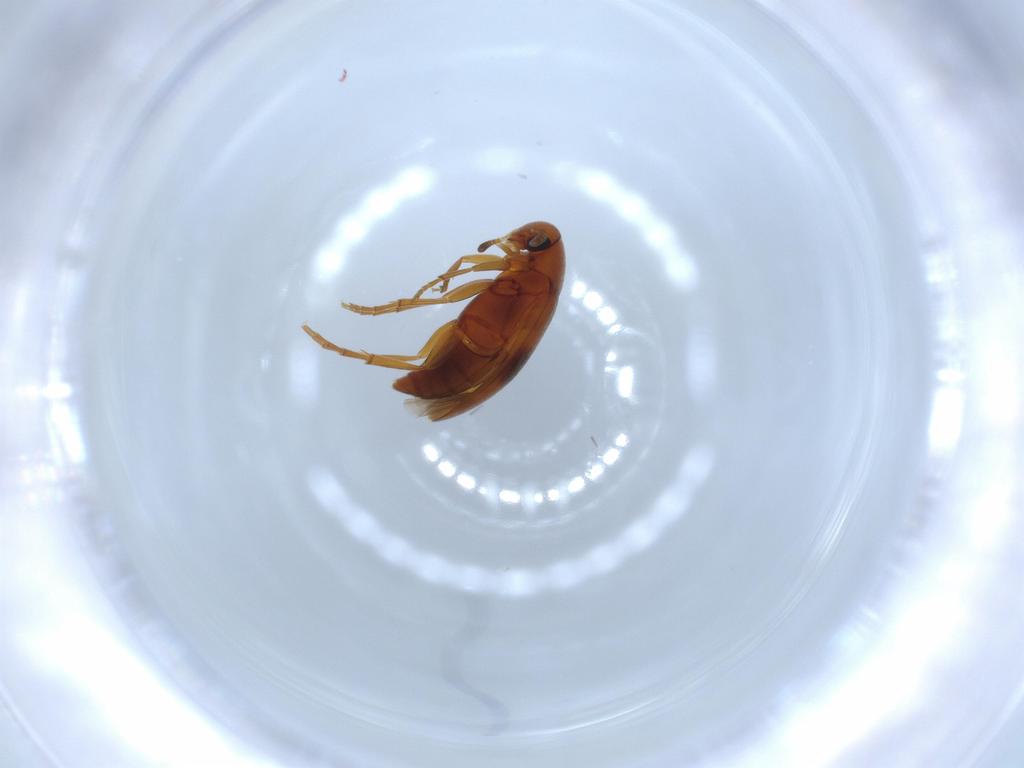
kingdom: Animalia
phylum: Arthropoda
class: Insecta
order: Coleoptera
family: Scraptiidae
